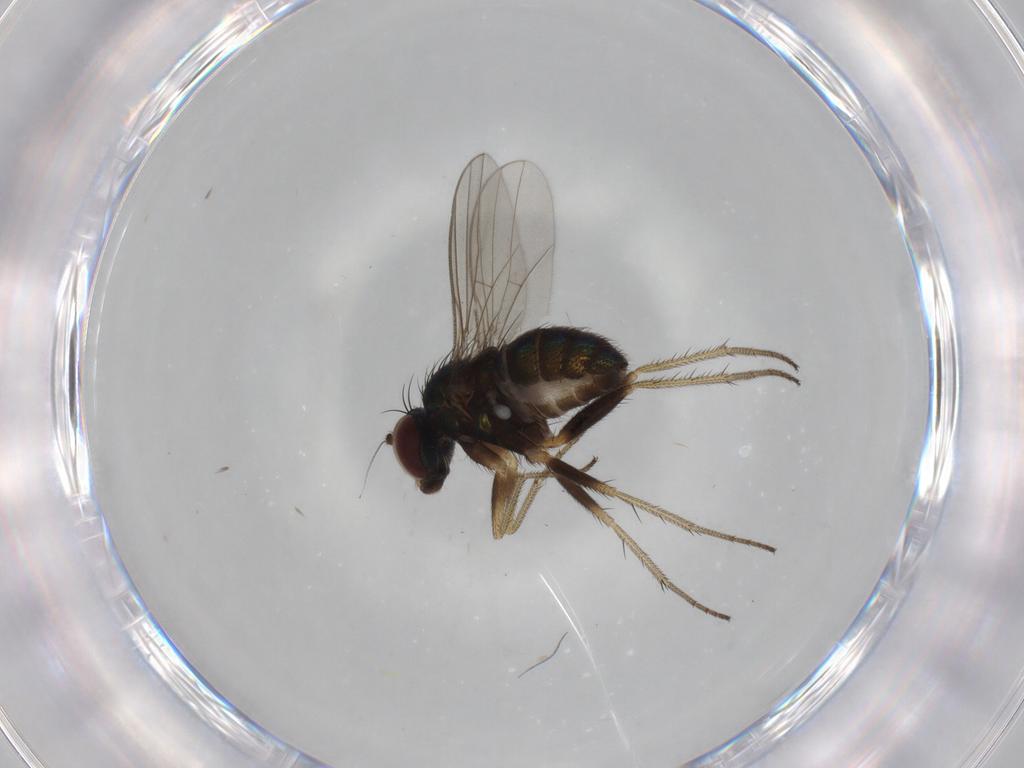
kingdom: Animalia
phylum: Arthropoda
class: Insecta
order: Diptera
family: Dolichopodidae
